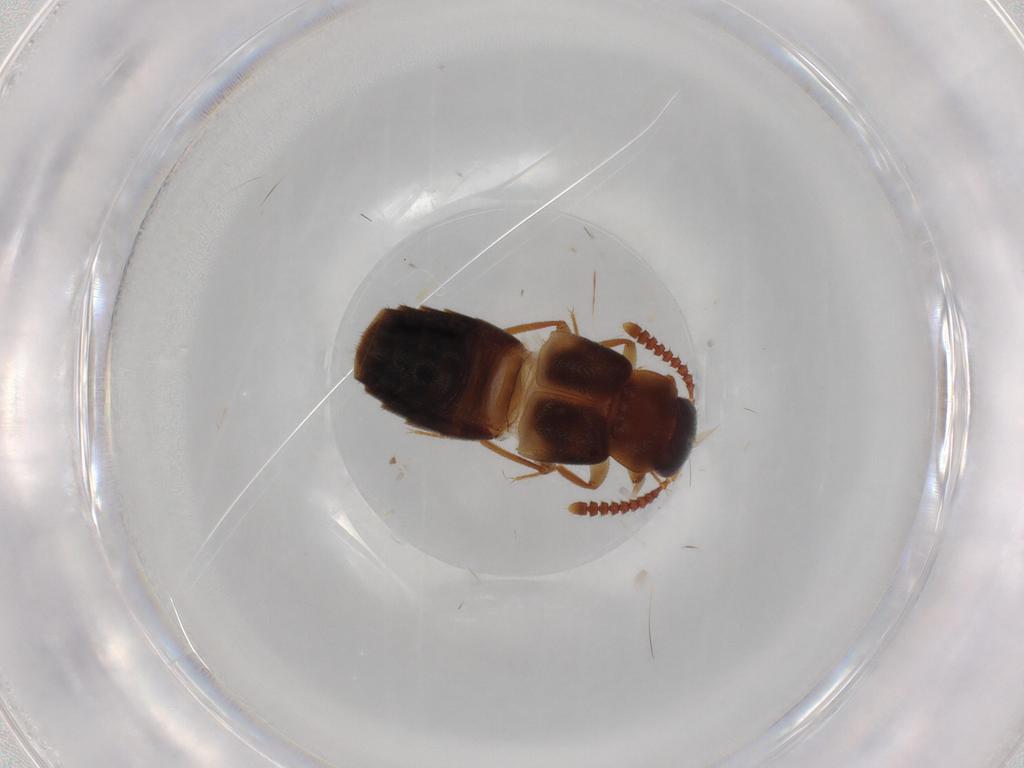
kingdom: Animalia
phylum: Arthropoda
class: Insecta
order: Coleoptera
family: Staphylinidae
